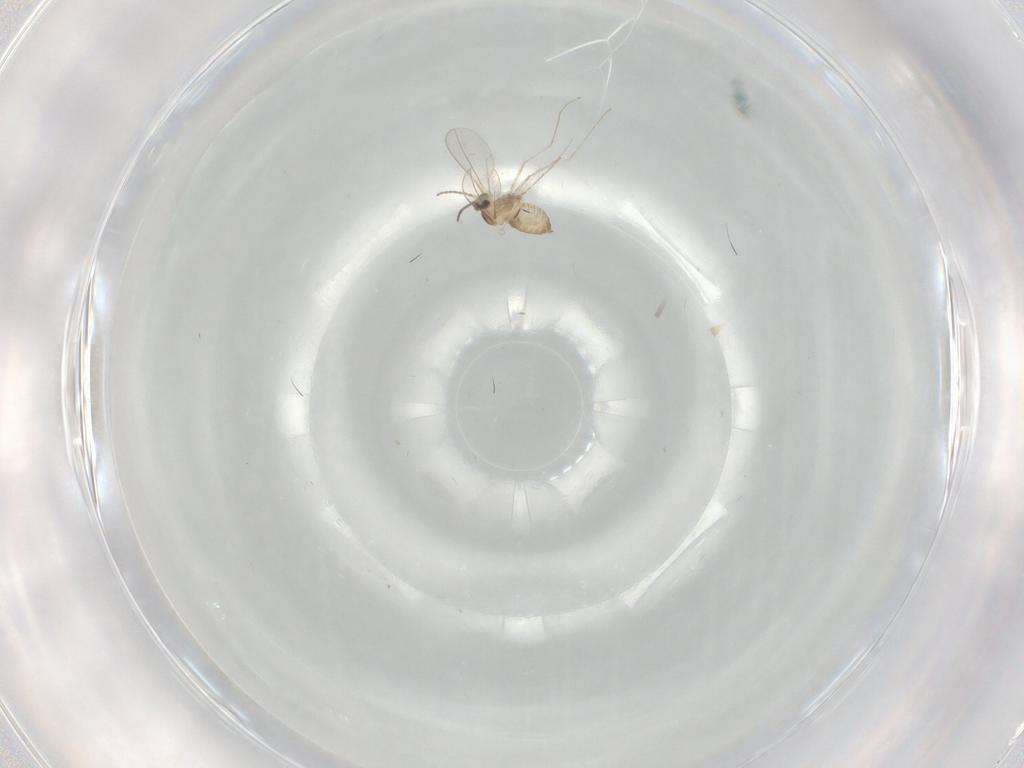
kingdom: Animalia
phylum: Arthropoda
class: Insecta
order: Diptera
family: Cecidomyiidae
